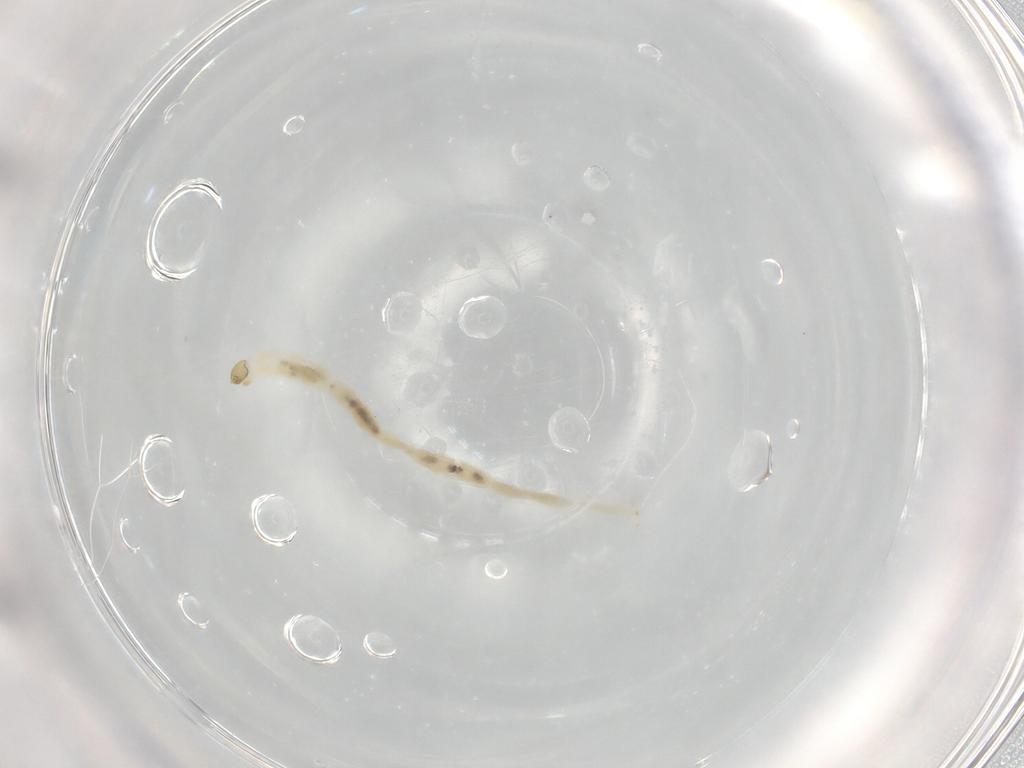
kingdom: Animalia
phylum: Arthropoda
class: Insecta
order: Diptera
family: Chironomidae
